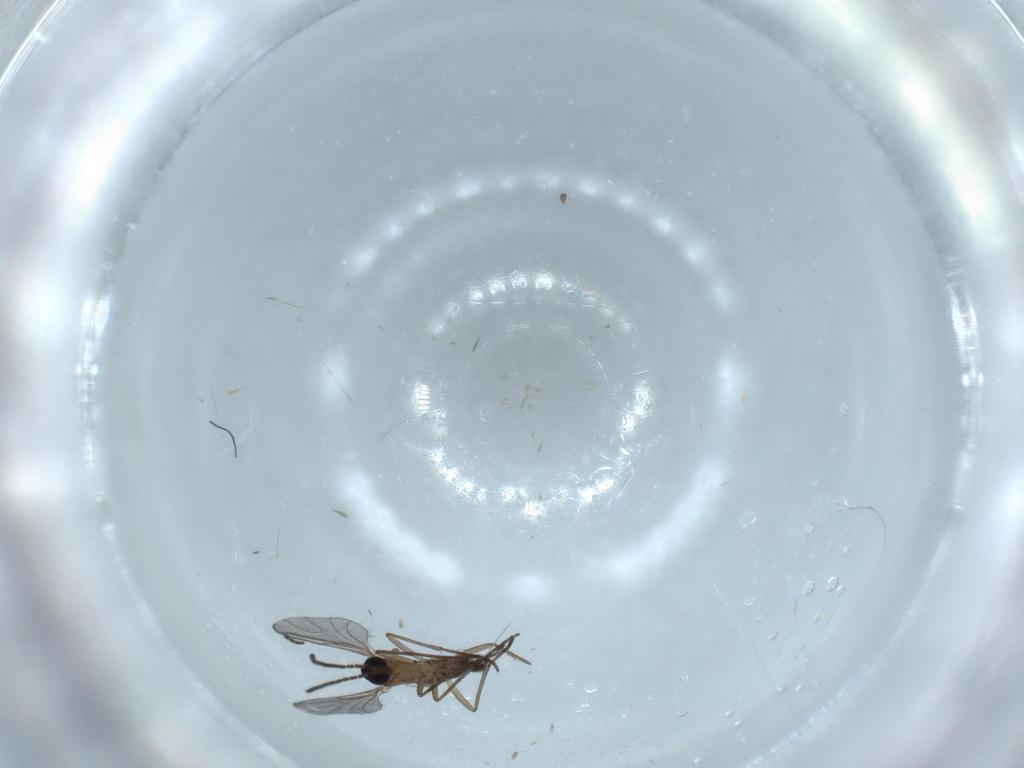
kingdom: Animalia
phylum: Arthropoda
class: Insecta
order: Diptera
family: Sciaridae
